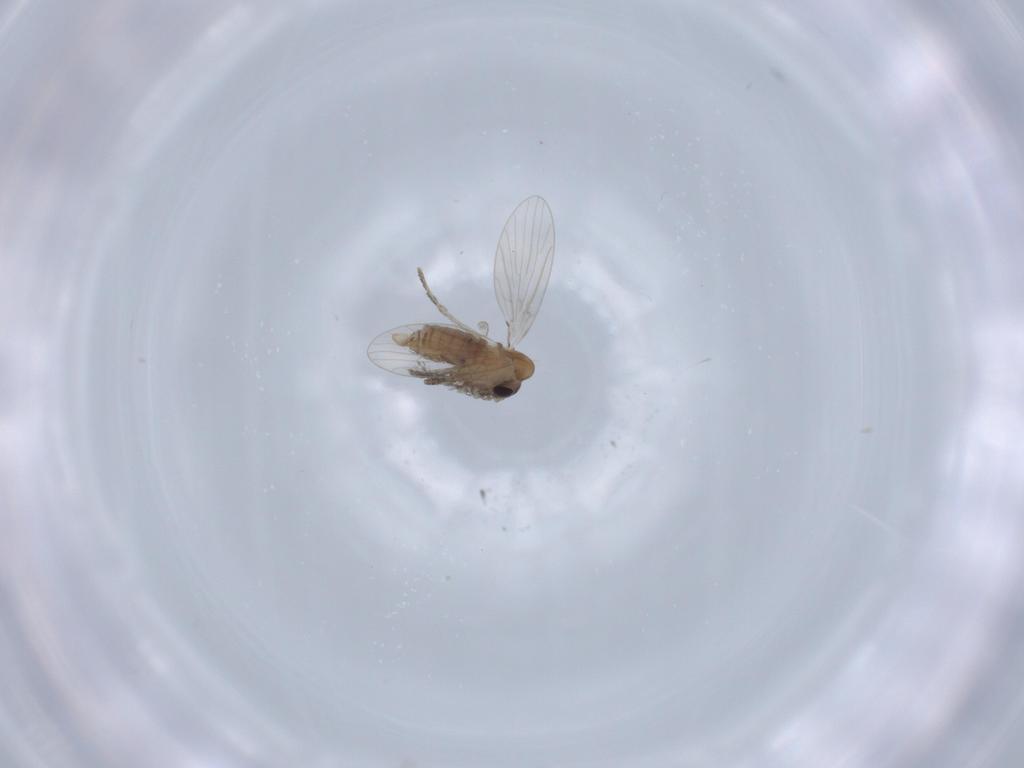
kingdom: Animalia
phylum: Arthropoda
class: Insecta
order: Diptera
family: Psychodidae
